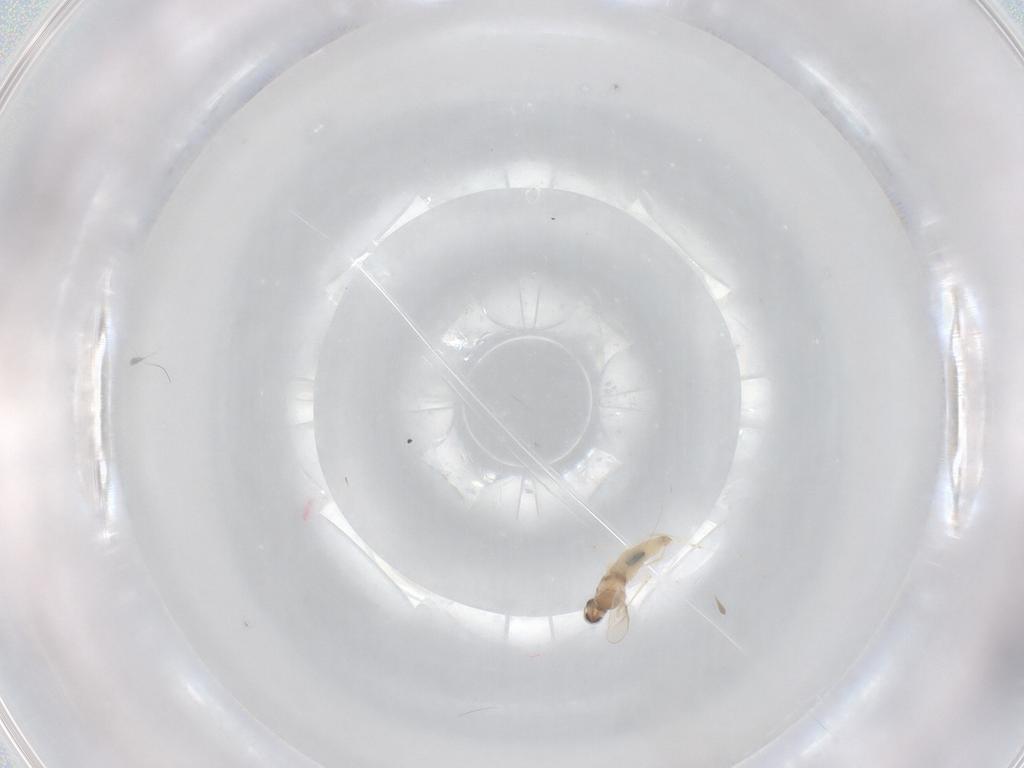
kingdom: Animalia
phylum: Arthropoda
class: Insecta
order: Diptera
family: Cecidomyiidae
